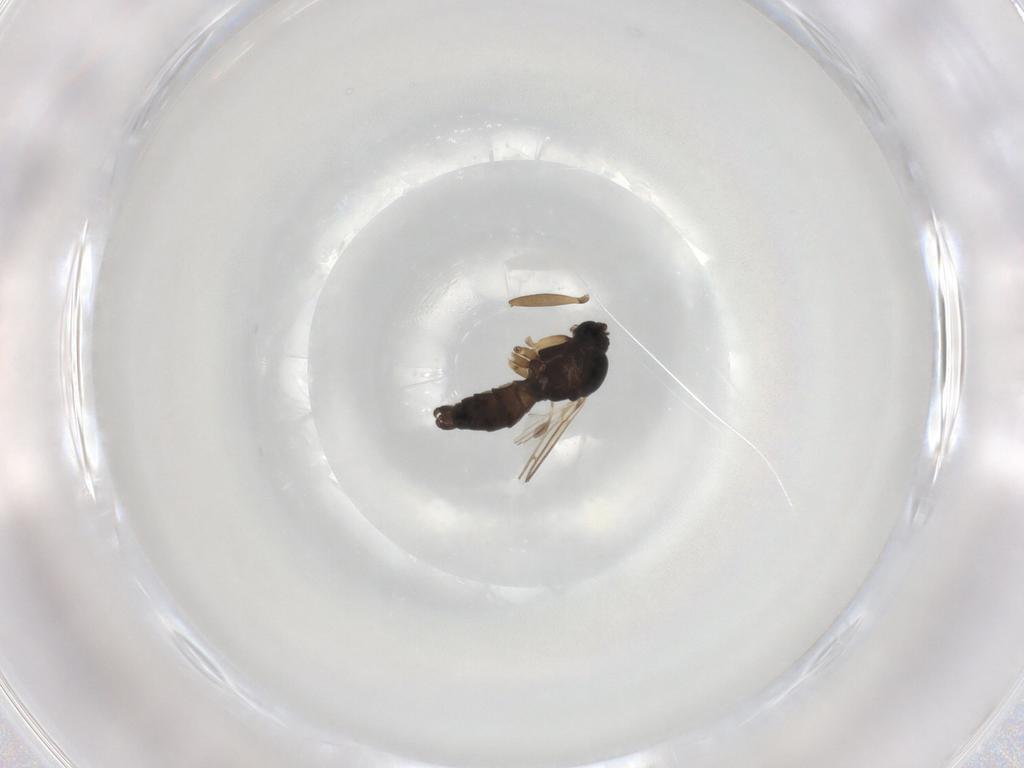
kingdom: Animalia
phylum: Arthropoda
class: Insecta
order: Diptera
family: Sciaridae
